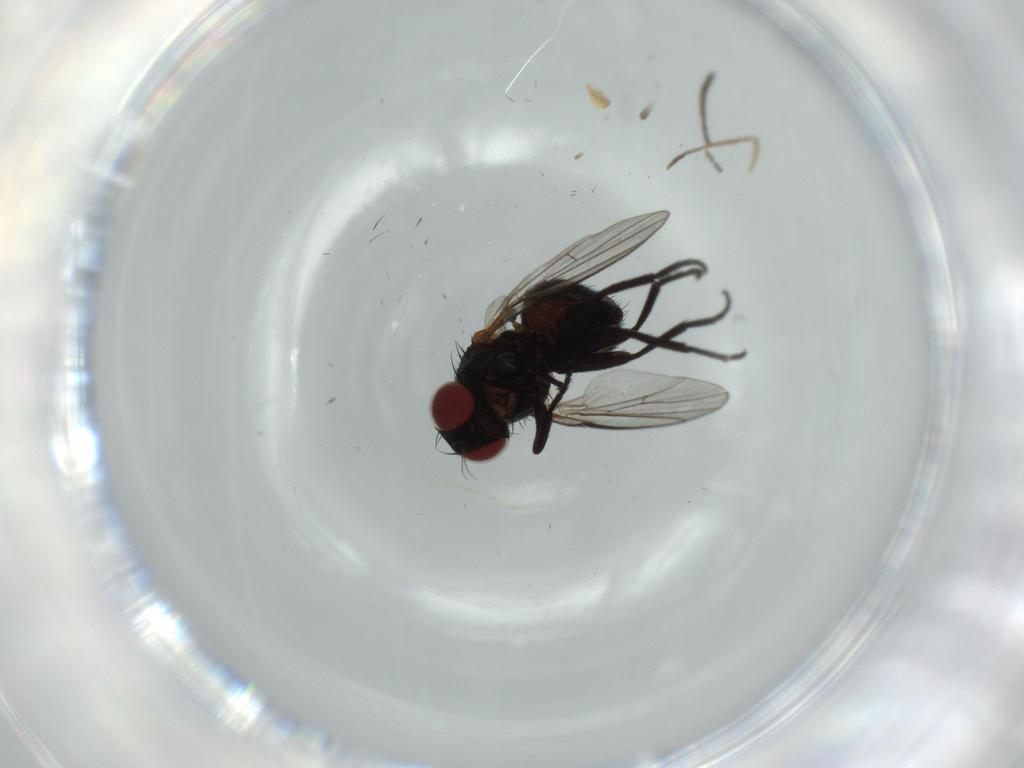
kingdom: Animalia
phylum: Arthropoda
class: Insecta
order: Diptera
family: Agromyzidae
